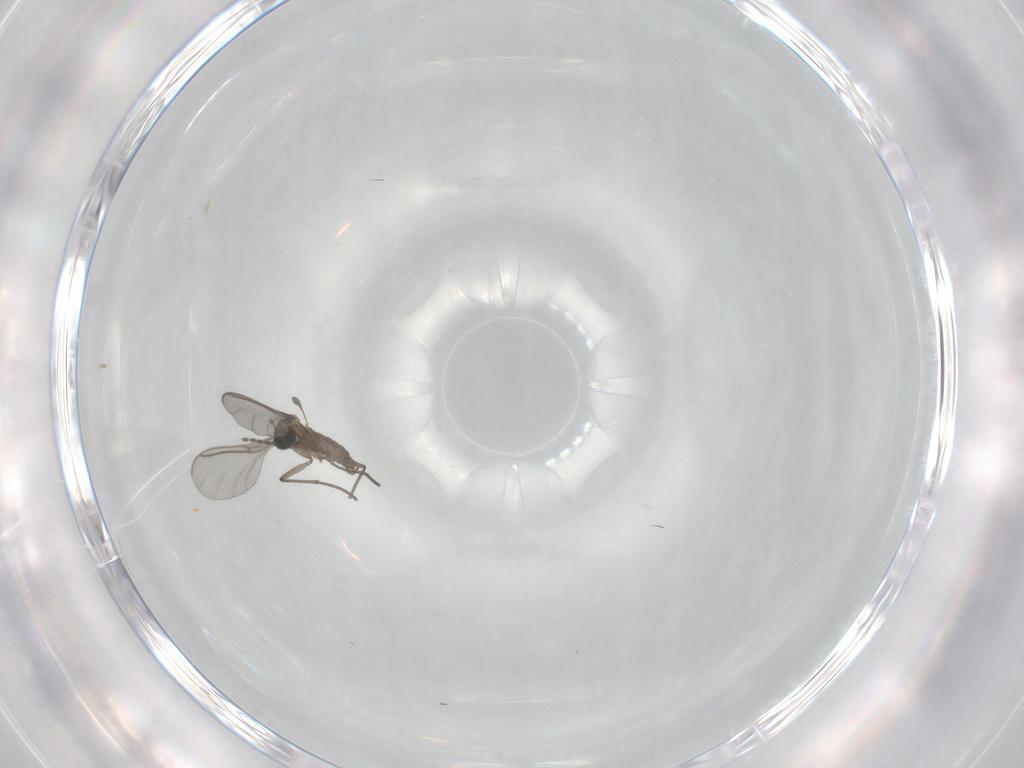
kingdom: Animalia
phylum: Arthropoda
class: Insecta
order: Diptera
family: Sciaridae
